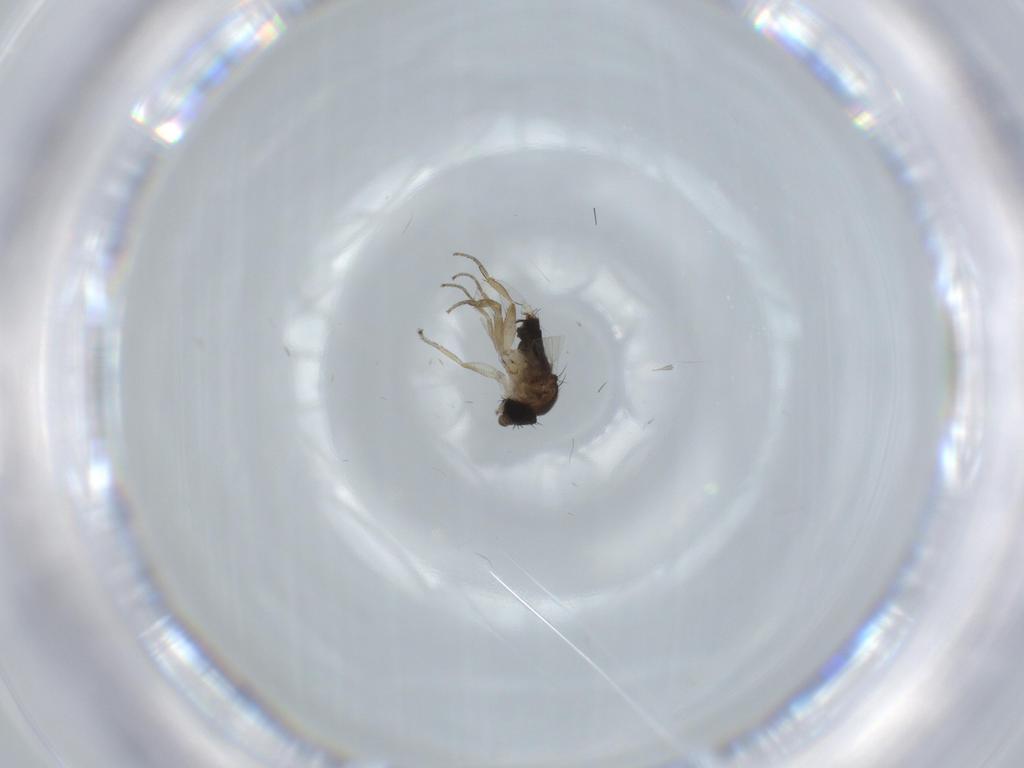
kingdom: Animalia
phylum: Arthropoda
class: Insecta
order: Diptera
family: Phoridae
